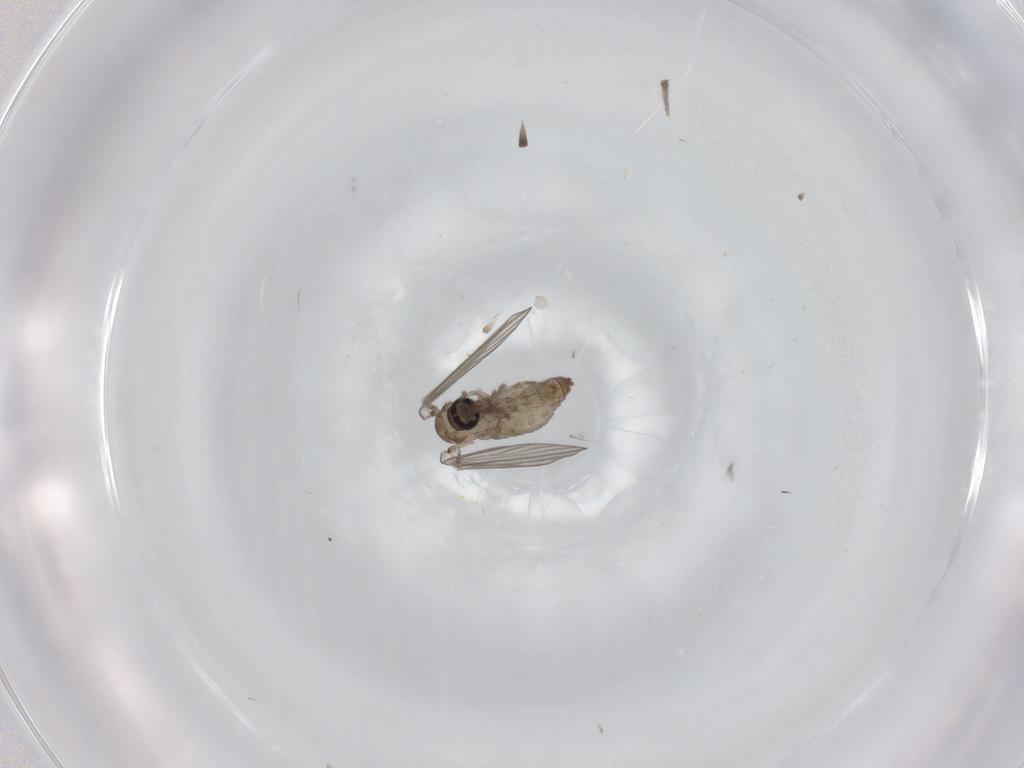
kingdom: Animalia
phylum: Arthropoda
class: Insecta
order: Diptera
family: Psychodidae
